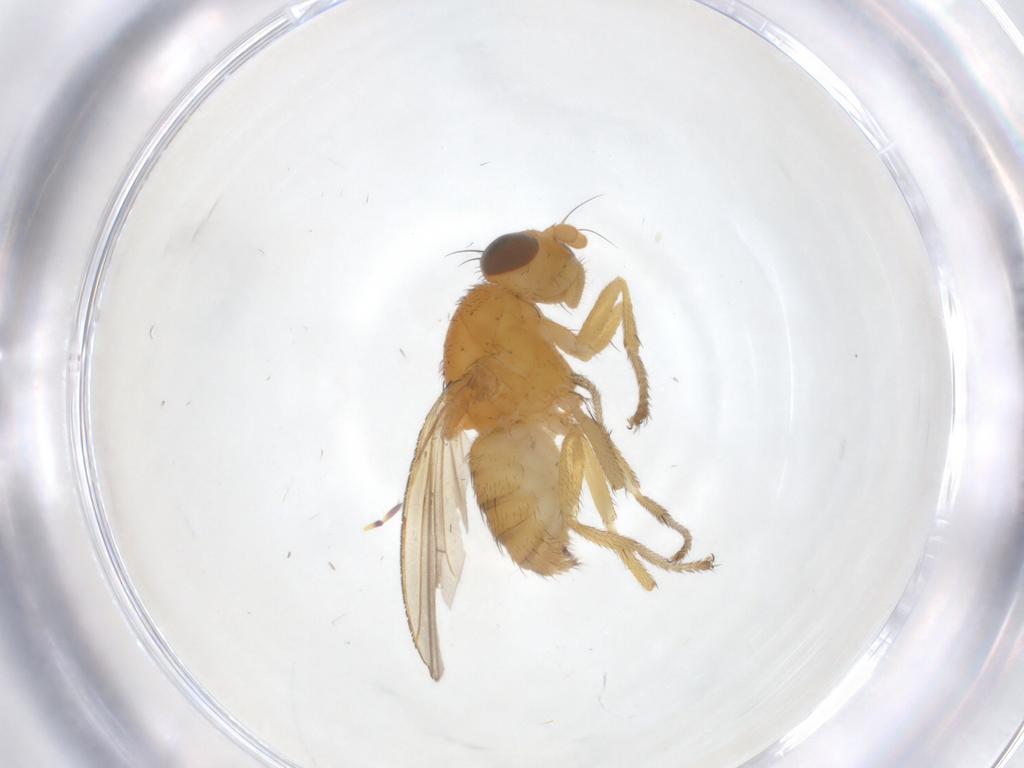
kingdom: Animalia
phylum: Arthropoda
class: Insecta
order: Diptera
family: Lauxaniidae
